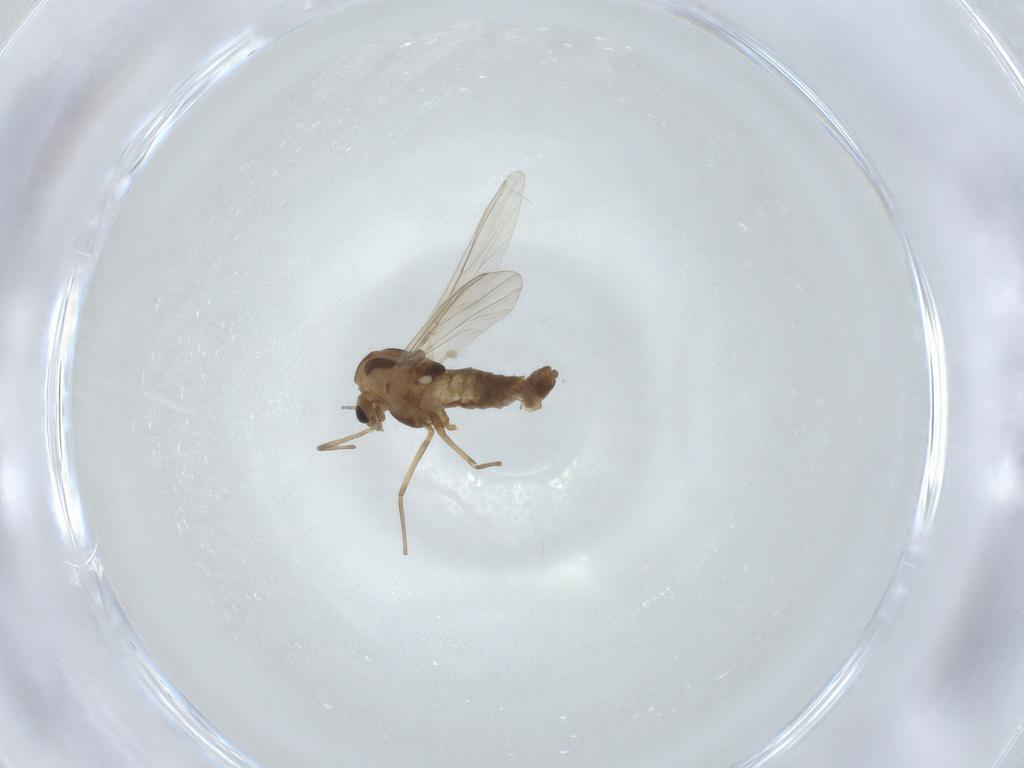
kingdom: Animalia
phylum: Arthropoda
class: Insecta
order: Diptera
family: Chironomidae
